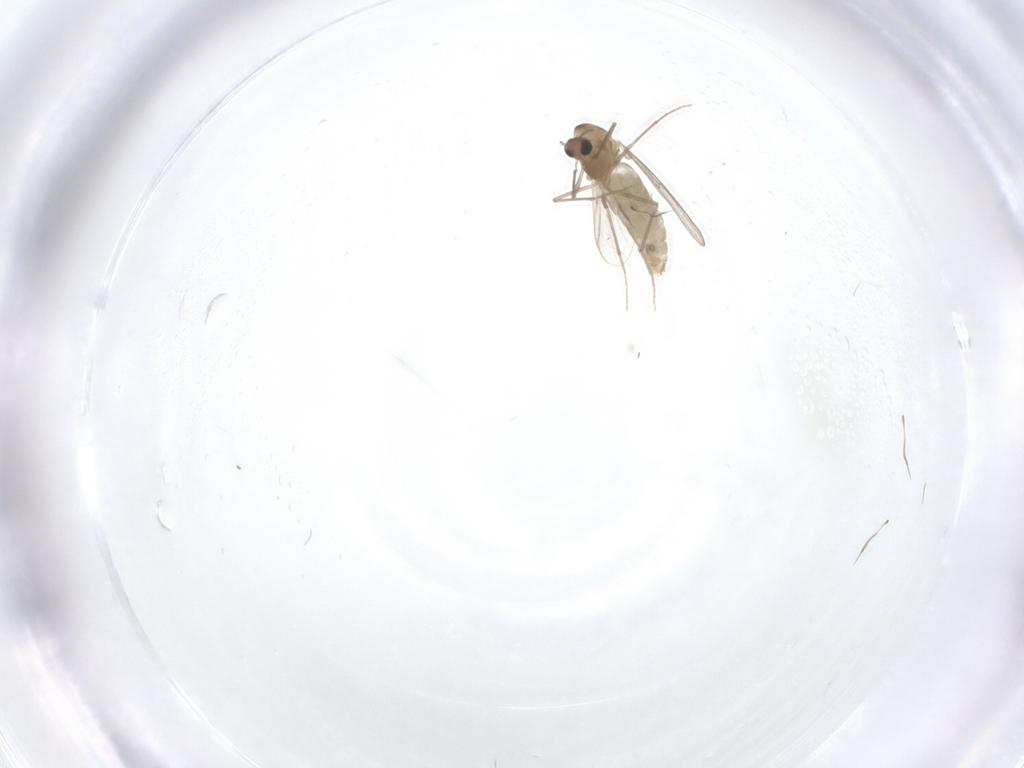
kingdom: Animalia
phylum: Arthropoda
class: Insecta
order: Diptera
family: Chironomidae
